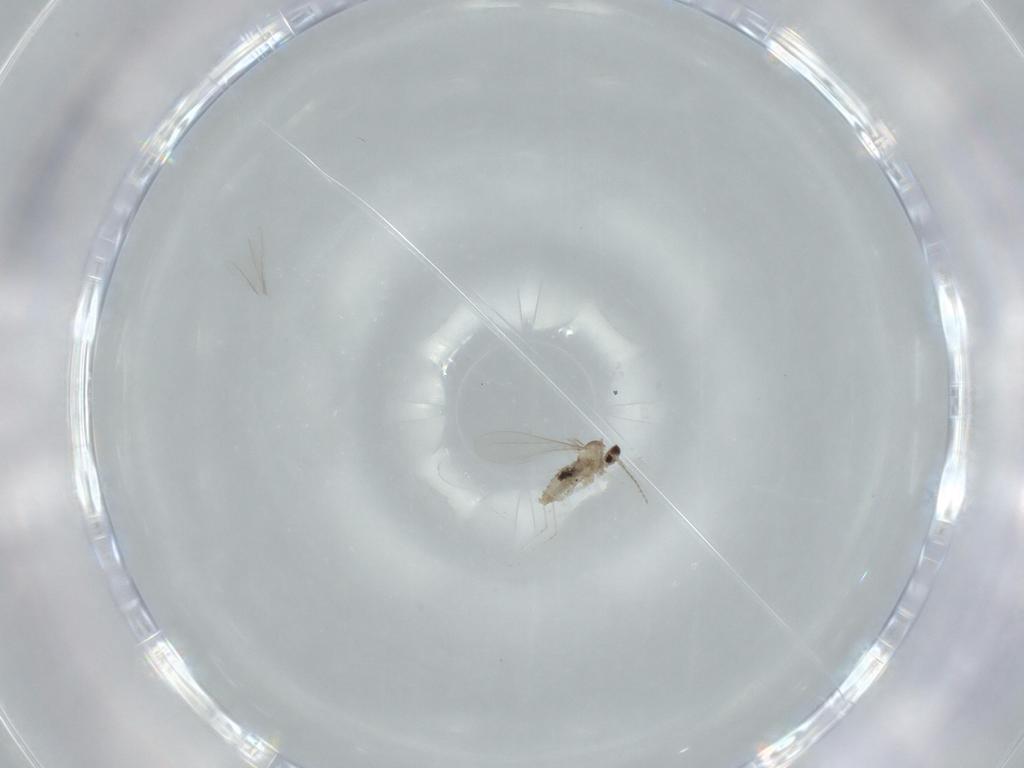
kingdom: Animalia
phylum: Arthropoda
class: Insecta
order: Diptera
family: Cecidomyiidae
